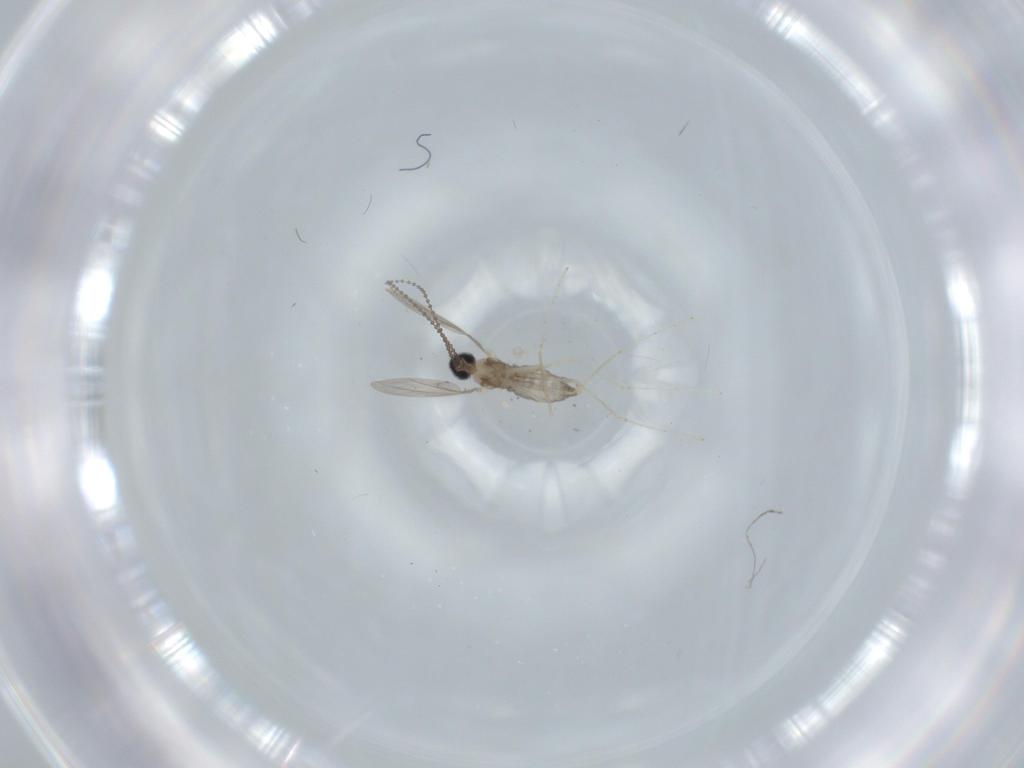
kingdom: Animalia
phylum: Arthropoda
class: Insecta
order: Diptera
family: Cecidomyiidae
